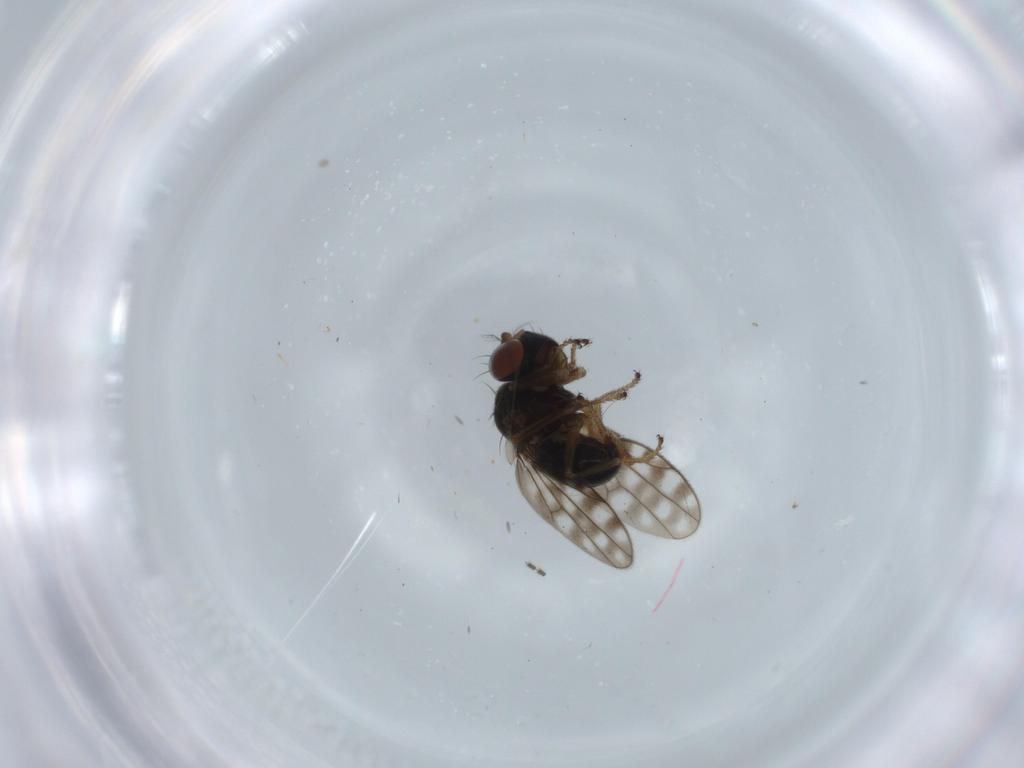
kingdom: Animalia
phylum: Arthropoda
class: Insecta
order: Diptera
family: Ephydridae
